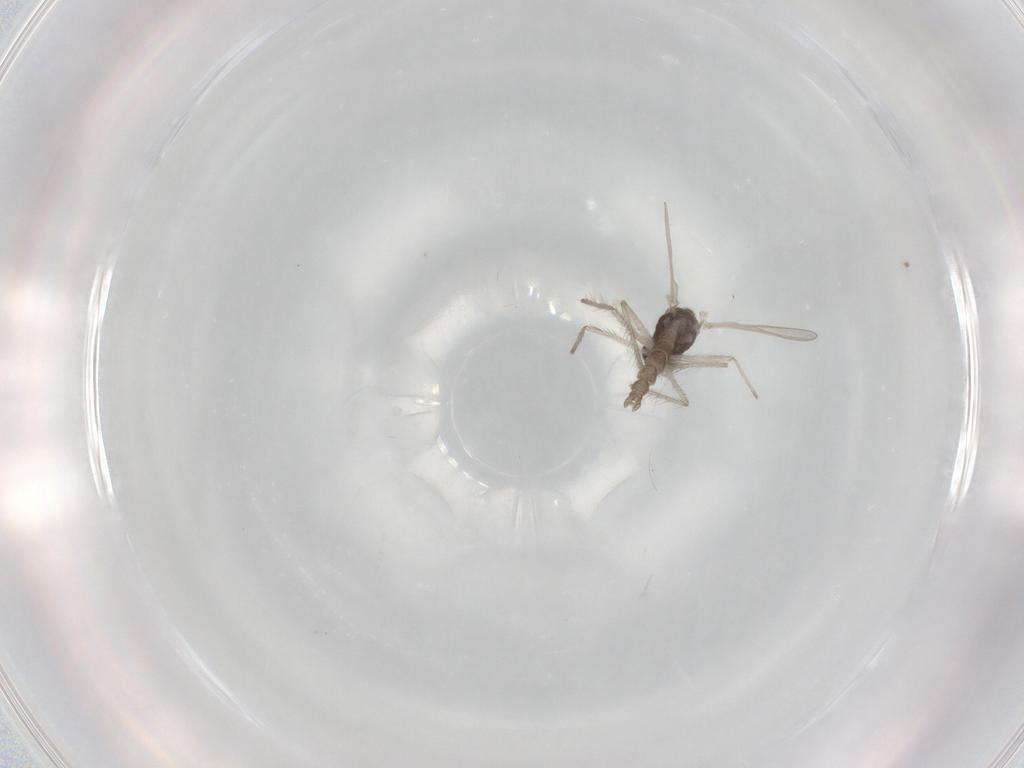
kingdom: Animalia
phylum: Arthropoda
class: Insecta
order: Diptera
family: Chironomidae
